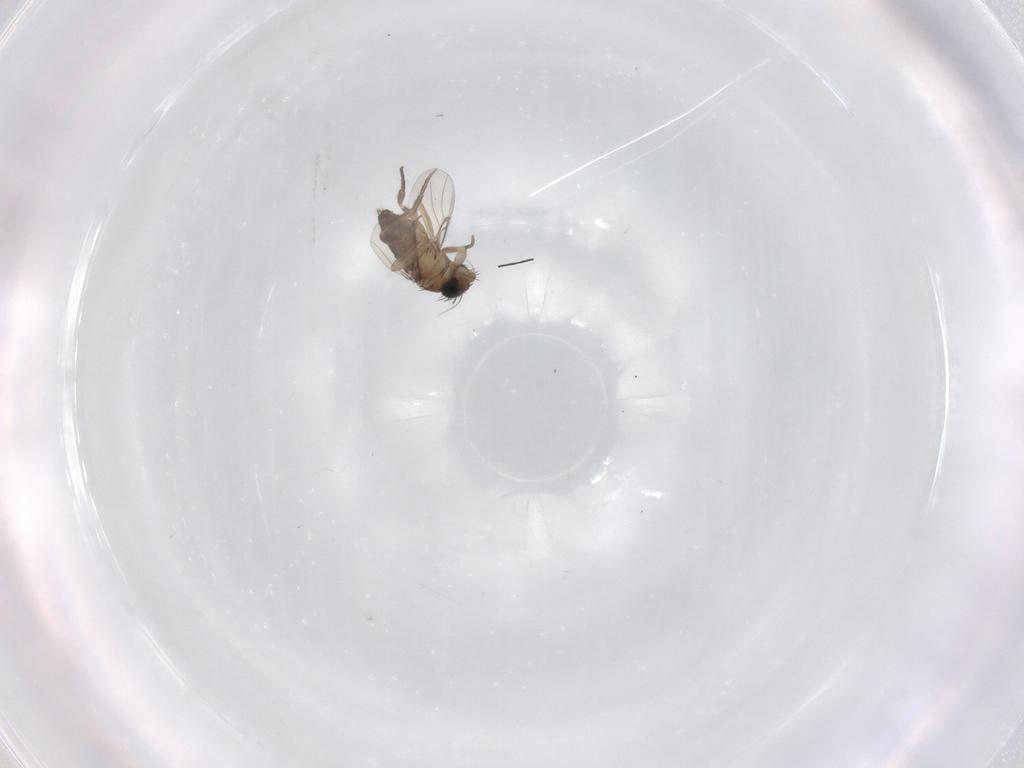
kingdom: Animalia
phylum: Arthropoda
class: Insecta
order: Diptera
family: Phoridae
